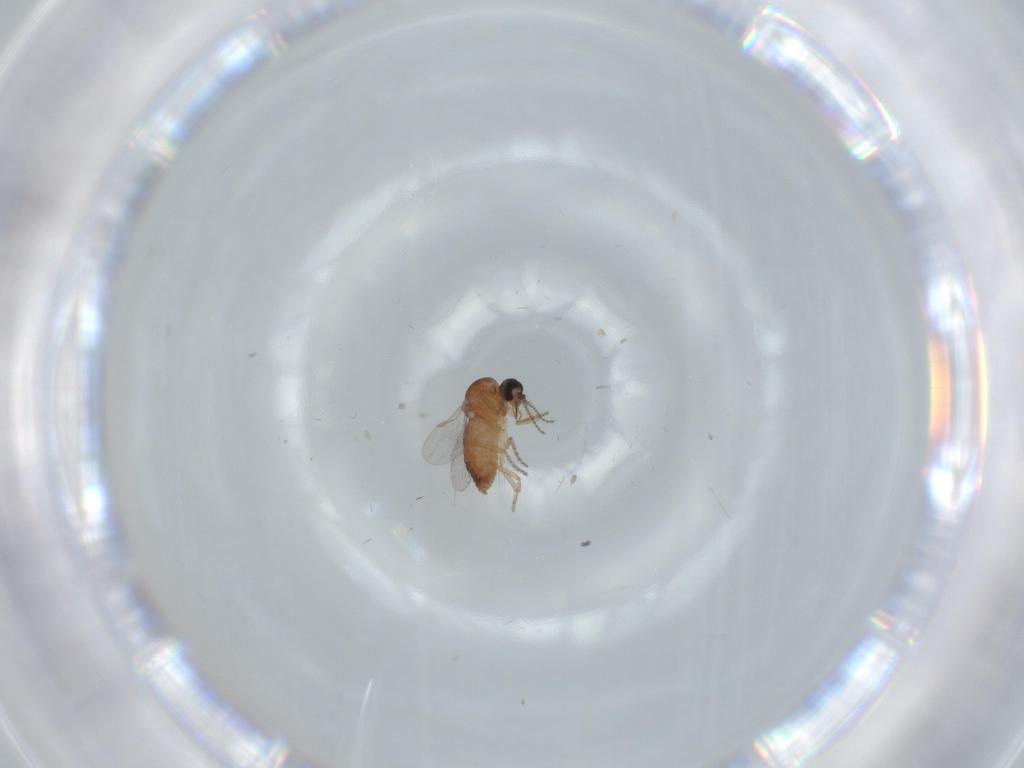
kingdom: Animalia
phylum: Arthropoda
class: Insecta
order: Diptera
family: Ceratopogonidae
